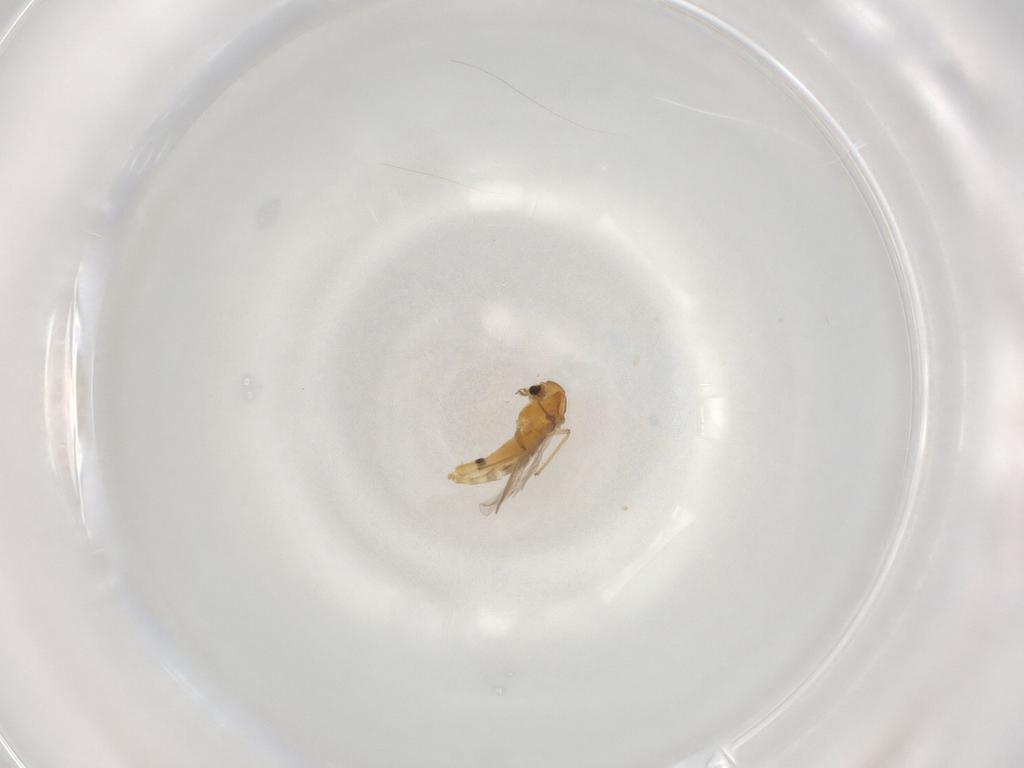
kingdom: Animalia
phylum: Arthropoda
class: Insecta
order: Diptera
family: Chironomidae
